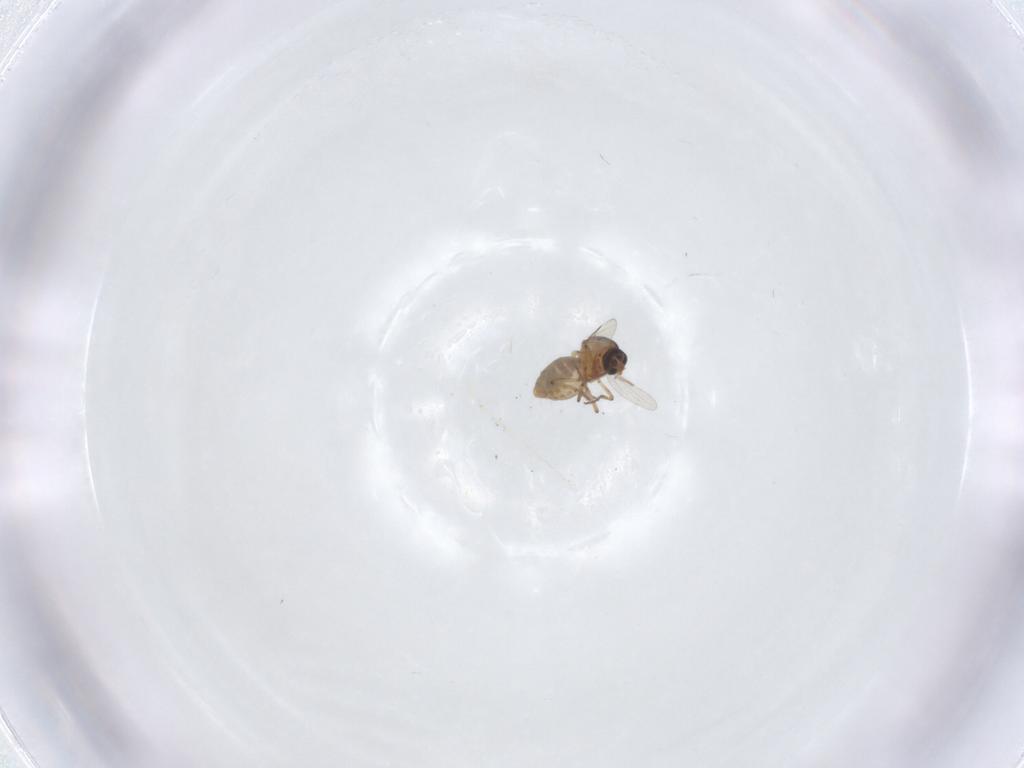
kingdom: Animalia
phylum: Arthropoda
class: Insecta
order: Diptera
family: Ceratopogonidae
